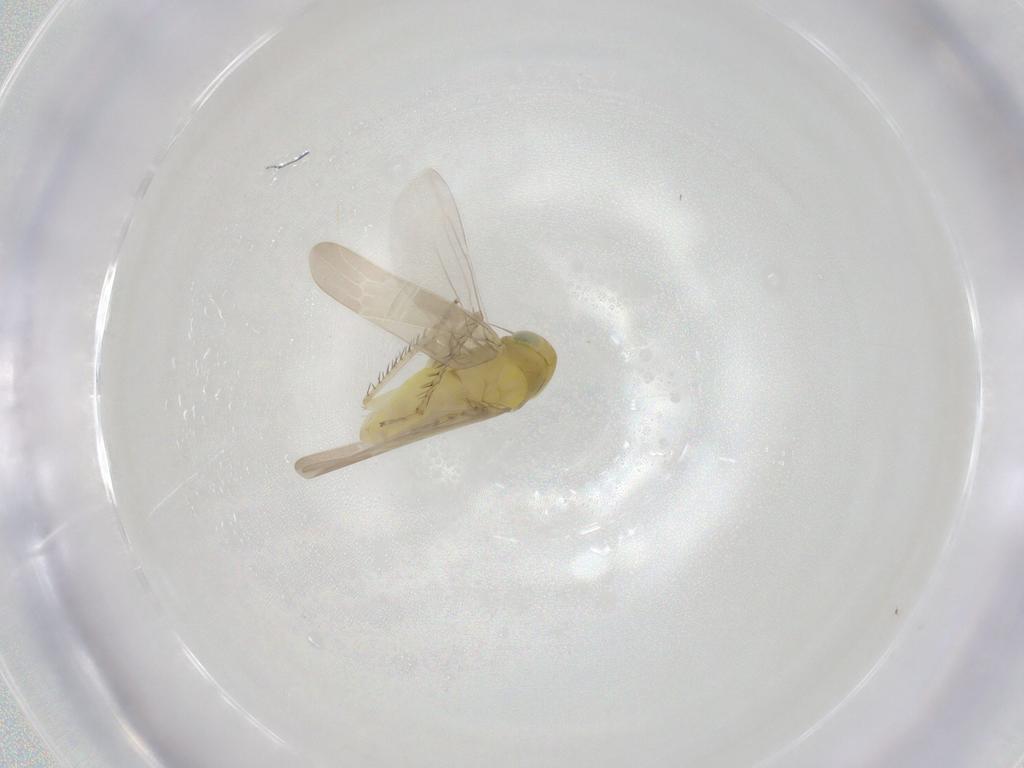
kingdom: Animalia
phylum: Arthropoda
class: Insecta
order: Hemiptera
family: Cicadellidae
